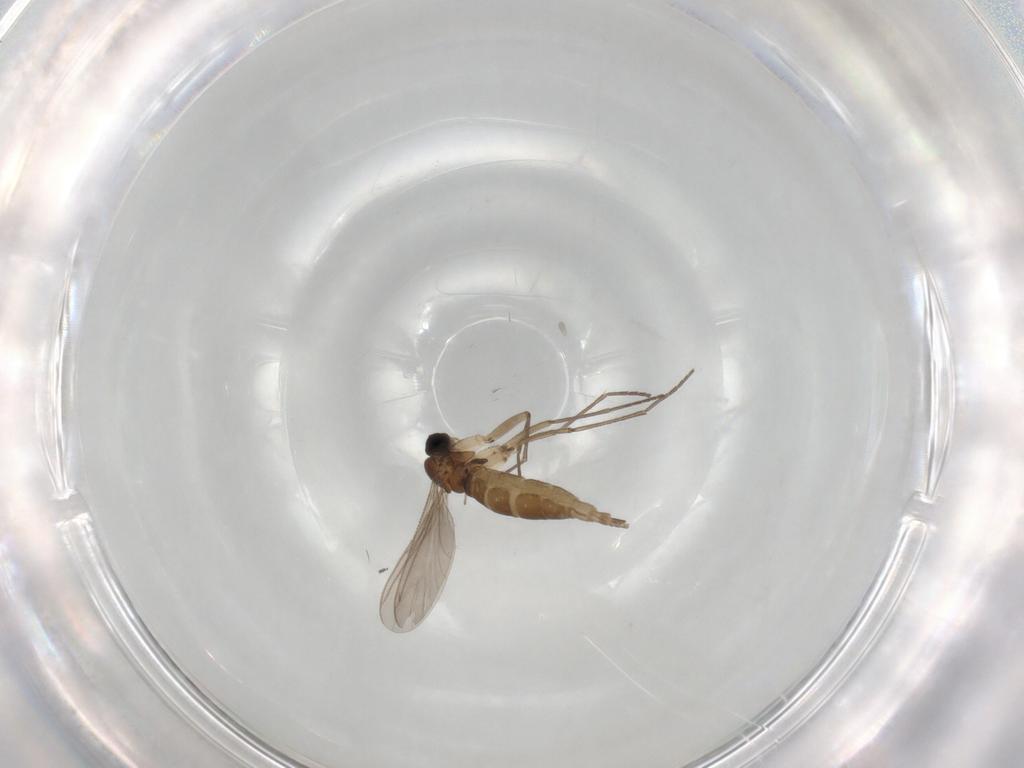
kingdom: Animalia
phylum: Arthropoda
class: Insecta
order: Diptera
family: Sciaridae
